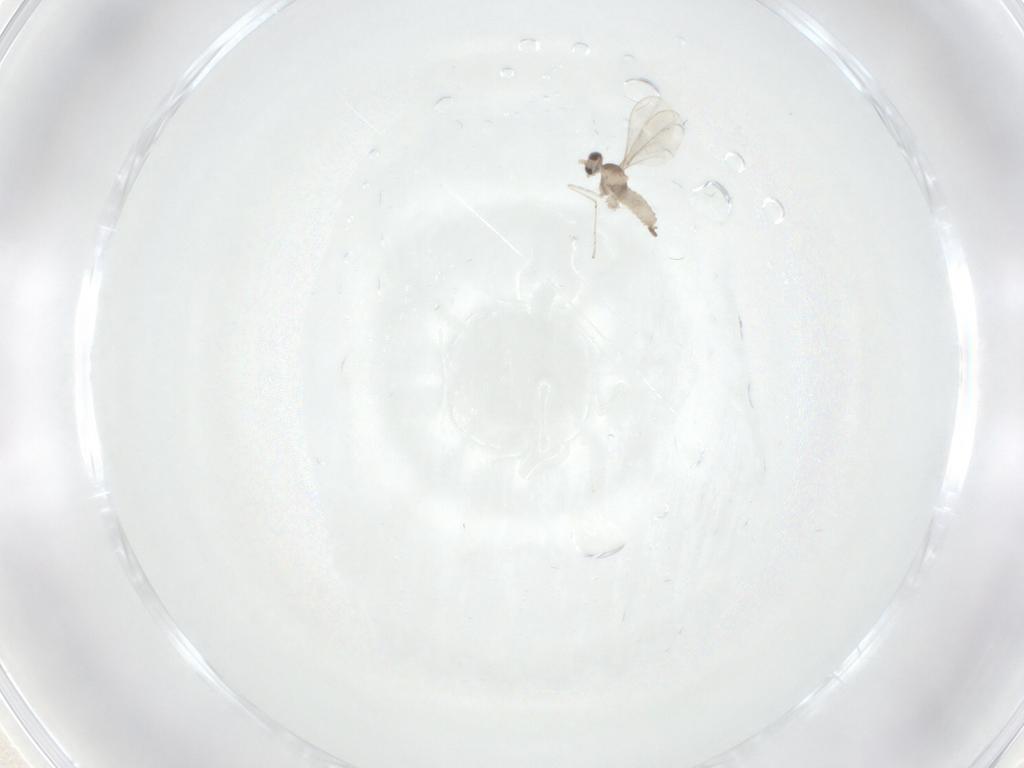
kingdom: Animalia
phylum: Arthropoda
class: Insecta
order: Diptera
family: Cecidomyiidae
